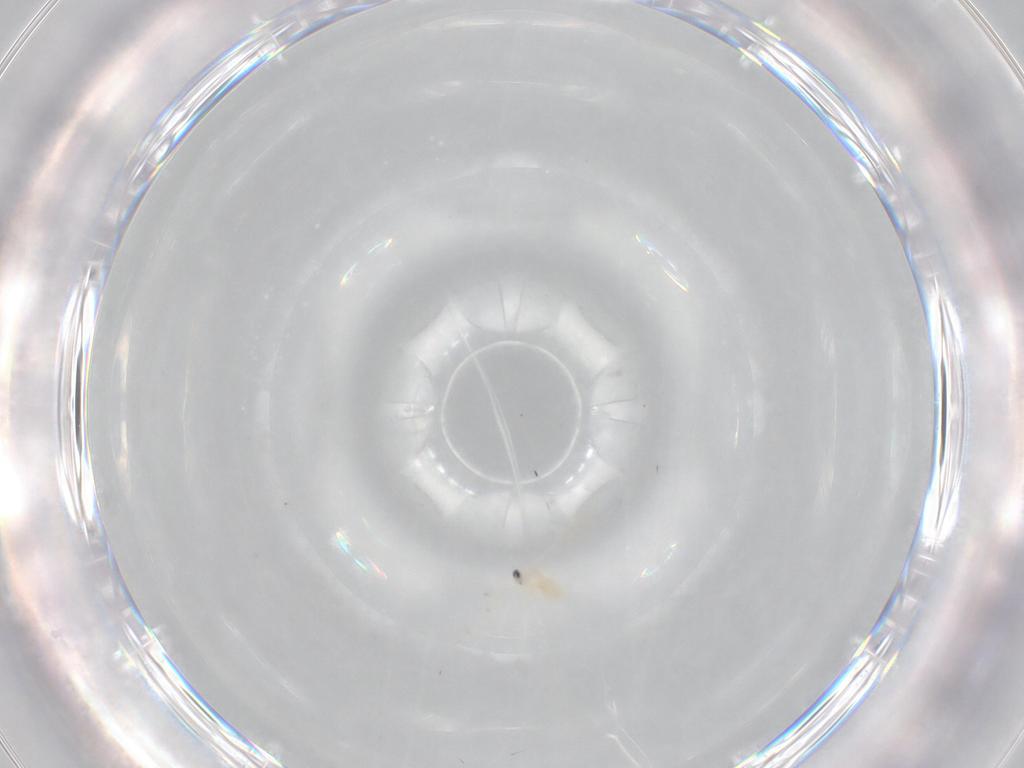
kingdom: Animalia
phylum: Arthropoda
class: Insecta
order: Diptera
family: Cecidomyiidae
